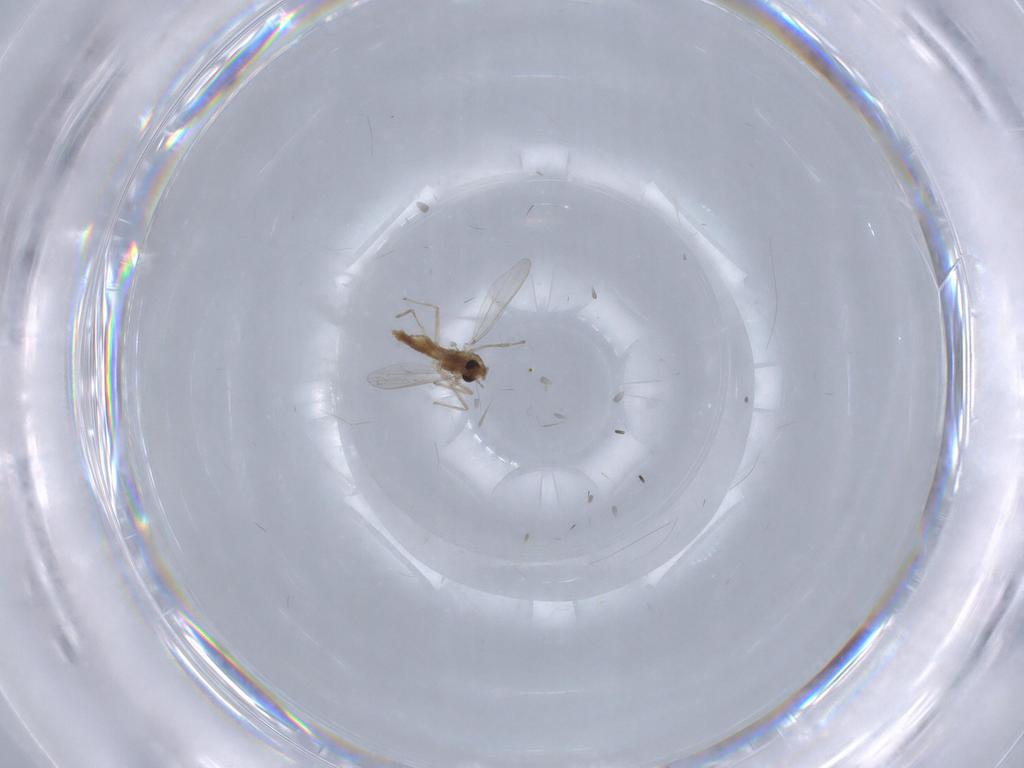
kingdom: Animalia
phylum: Arthropoda
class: Insecta
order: Diptera
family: Chironomidae
